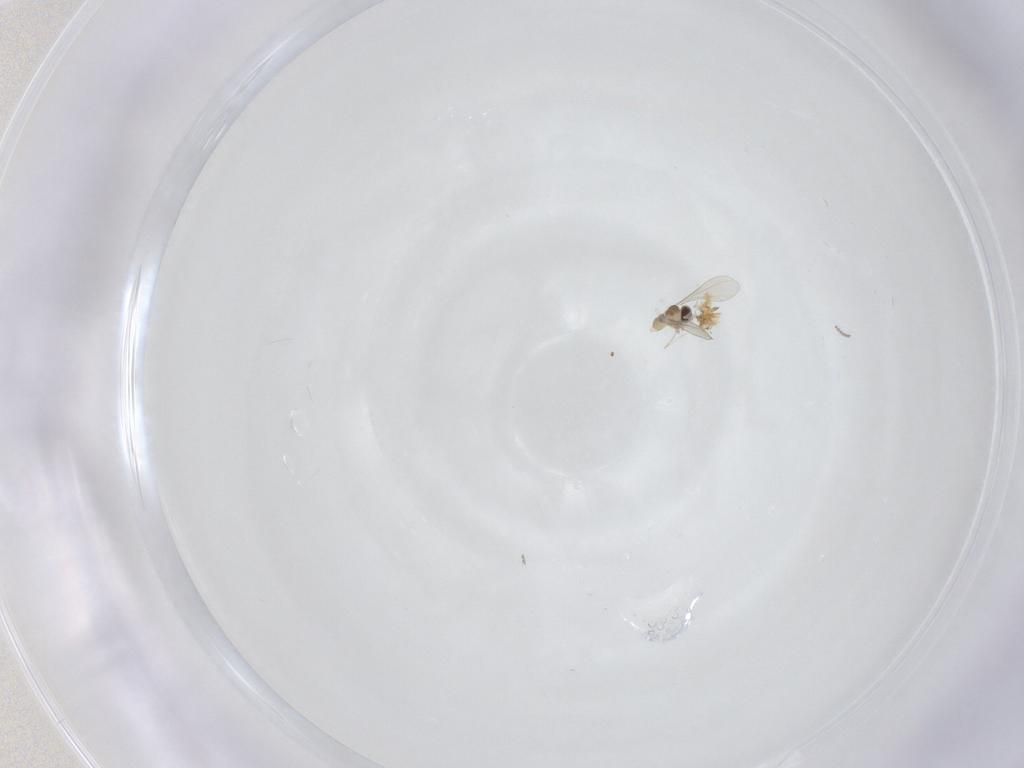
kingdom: Animalia
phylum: Arthropoda
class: Insecta
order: Diptera
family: Cecidomyiidae
